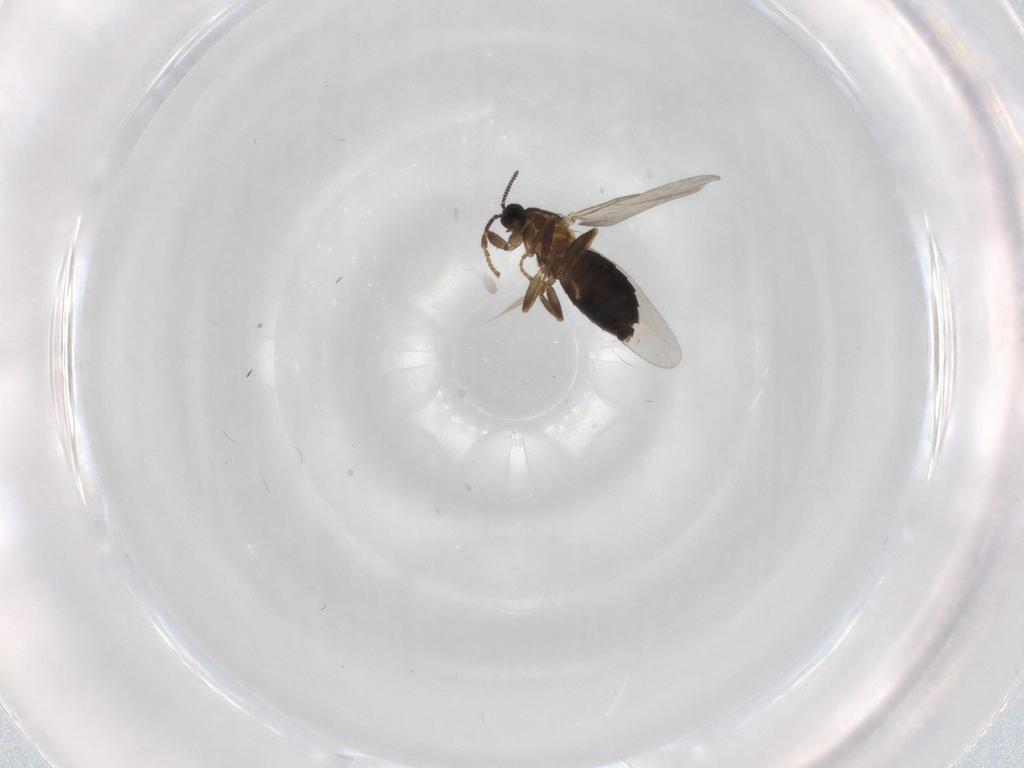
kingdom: Animalia
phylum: Arthropoda
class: Insecta
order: Diptera
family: Scatopsidae
